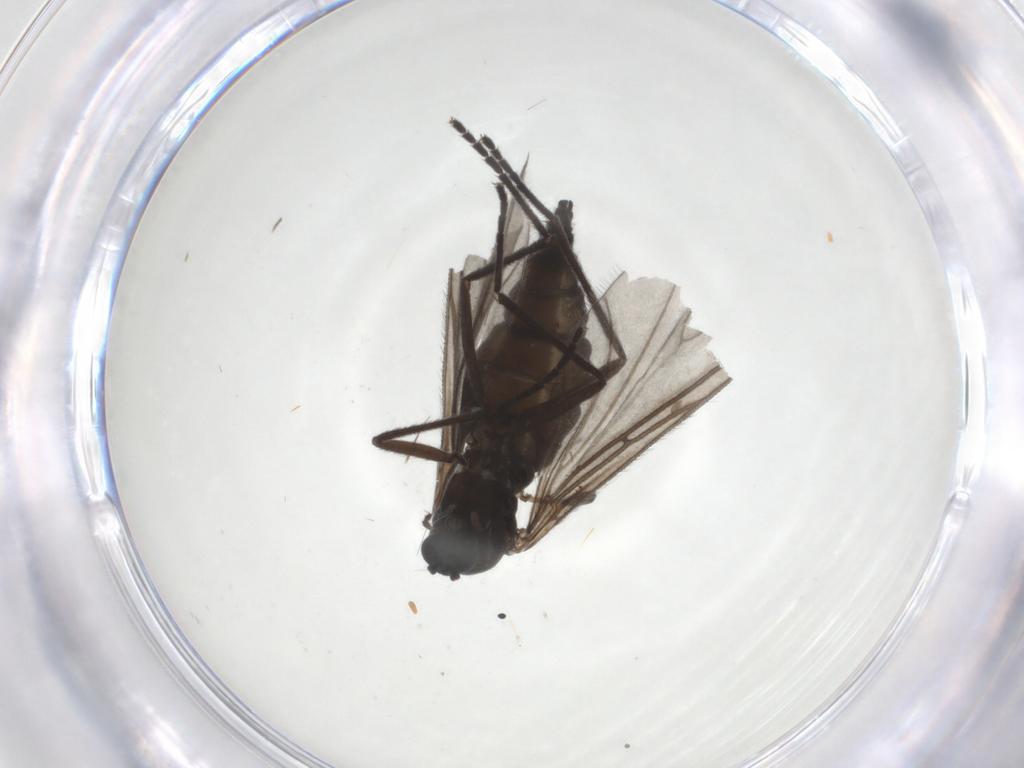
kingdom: Animalia
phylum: Arthropoda
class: Insecta
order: Diptera
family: Sciaridae
